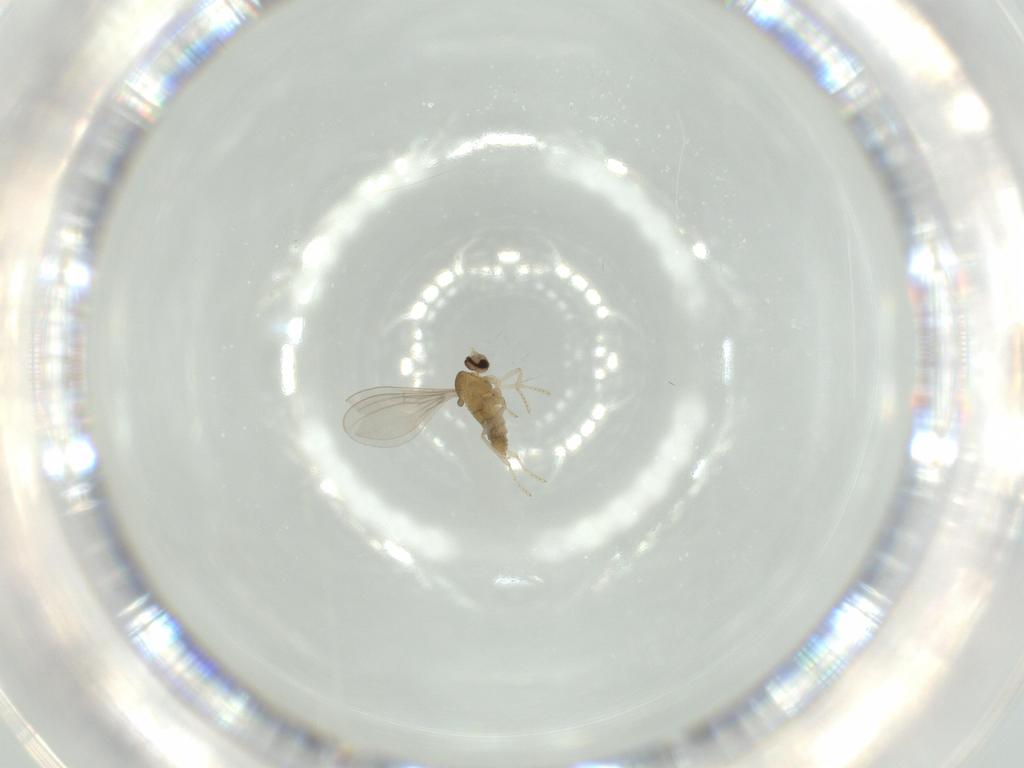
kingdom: Animalia
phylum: Arthropoda
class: Insecta
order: Diptera
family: Cecidomyiidae
